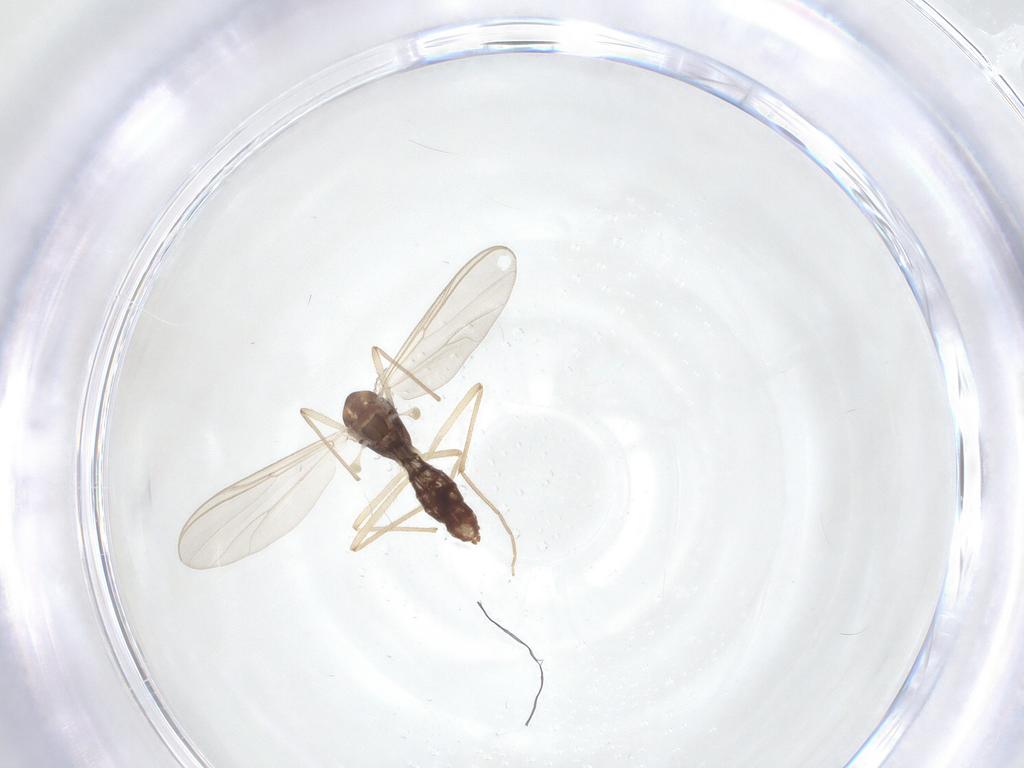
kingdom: Animalia
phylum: Arthropoda
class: Insecta
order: Diptera
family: Chironomidae
